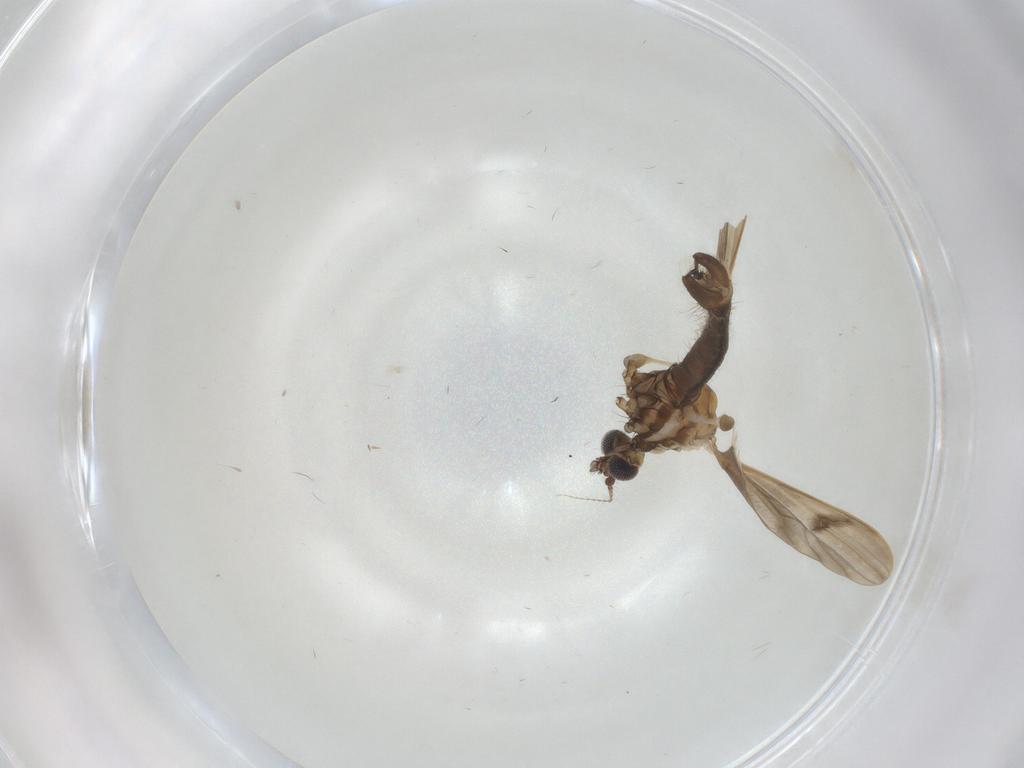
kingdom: Animalia
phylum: Arthropoda
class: Insecta
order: Diptera
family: Limoniidae
